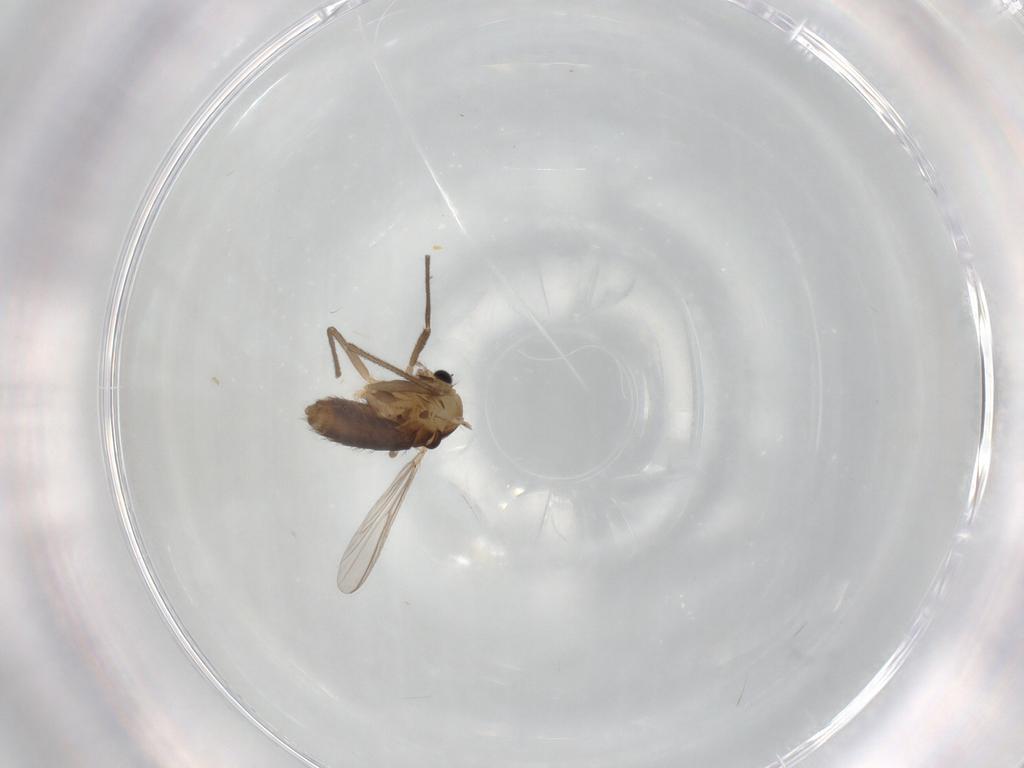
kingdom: Animalia
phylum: Arthropoda
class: Insecta
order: Diptera
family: Chironomidae
